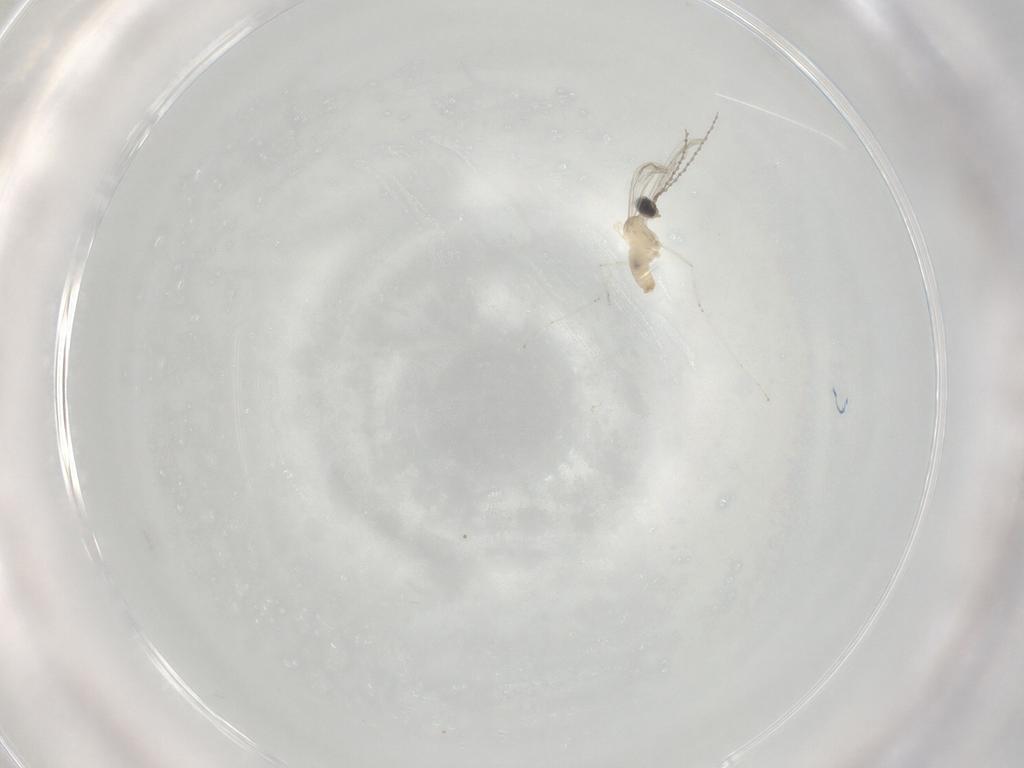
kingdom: Animalia
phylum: Arthropoda
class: Insecta
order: Diptera
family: Cecidomyiidae
